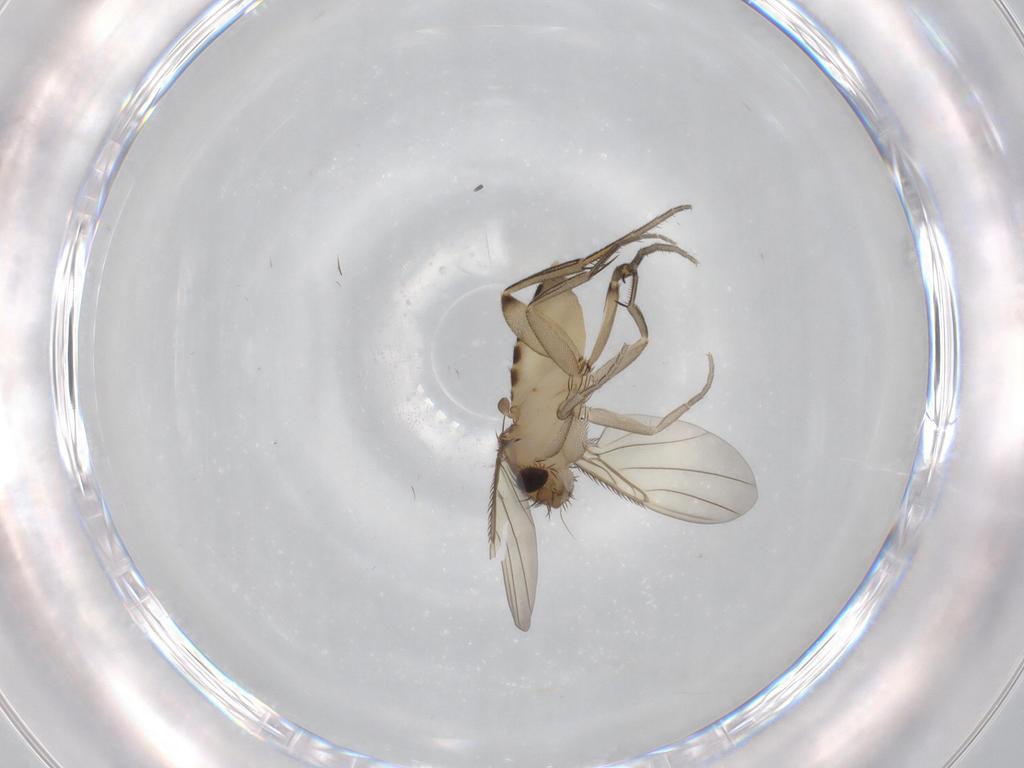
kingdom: Animalia
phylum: Arthropoda
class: Insecta
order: Diptera
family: Phoridae
